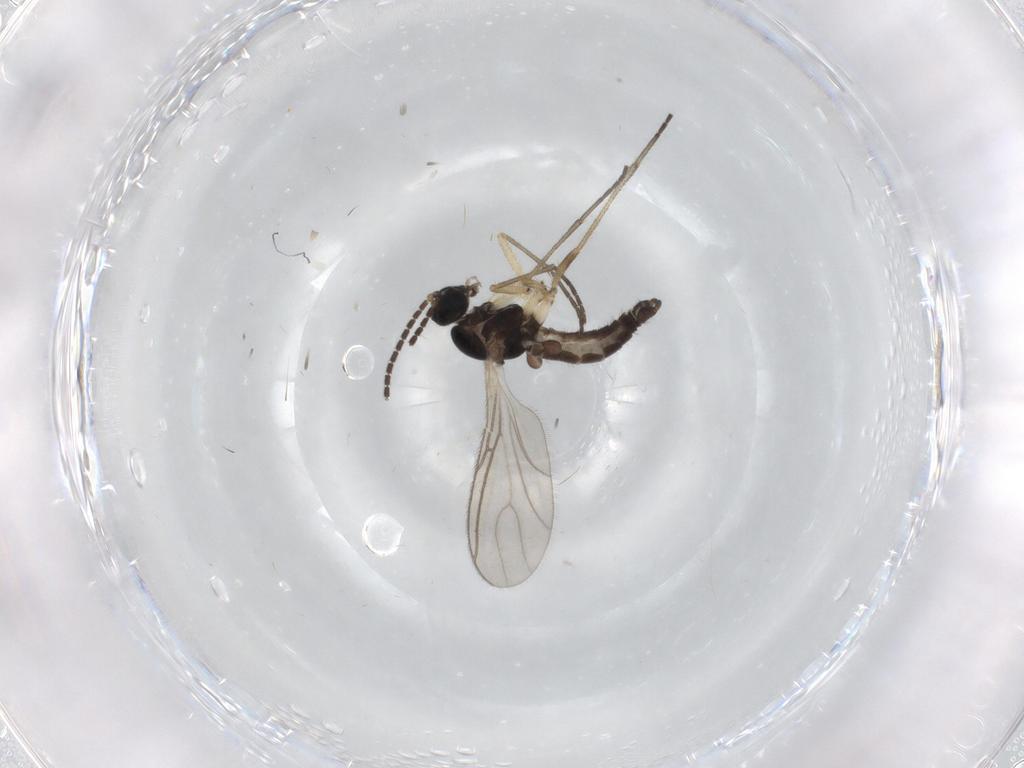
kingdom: Animalia
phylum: Arthropoda
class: Insecta
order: Diptera
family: Sciaridae
